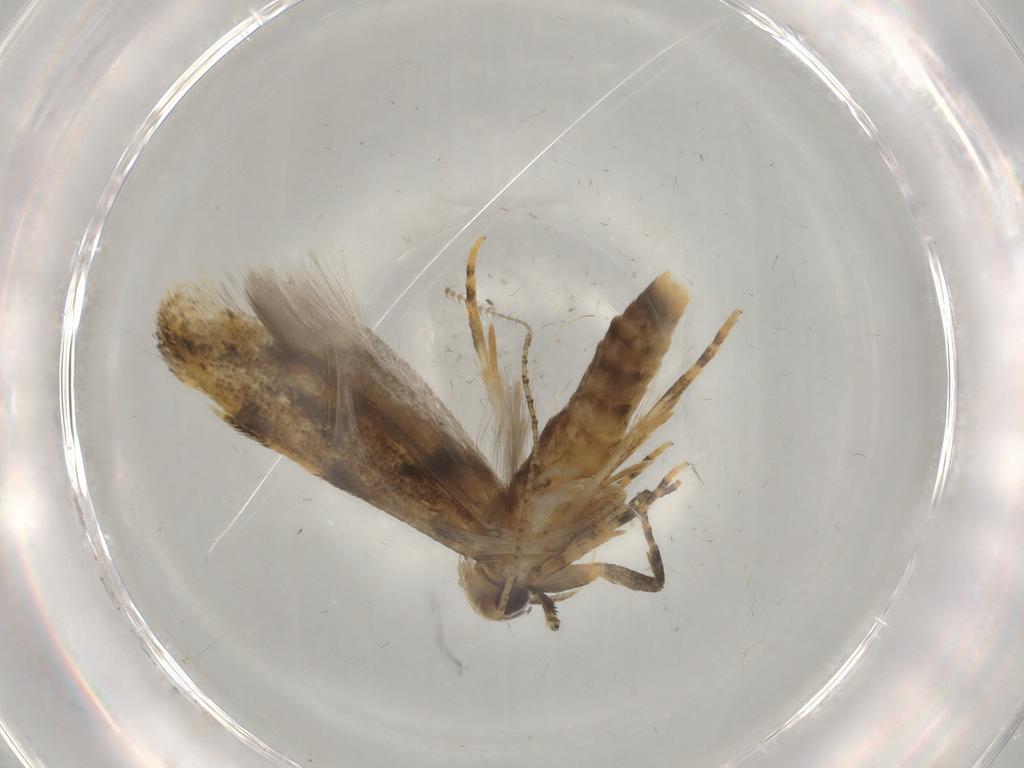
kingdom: Animalia
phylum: Arthropoda
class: Insecta
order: Lepidoptera
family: Gelechiidae
